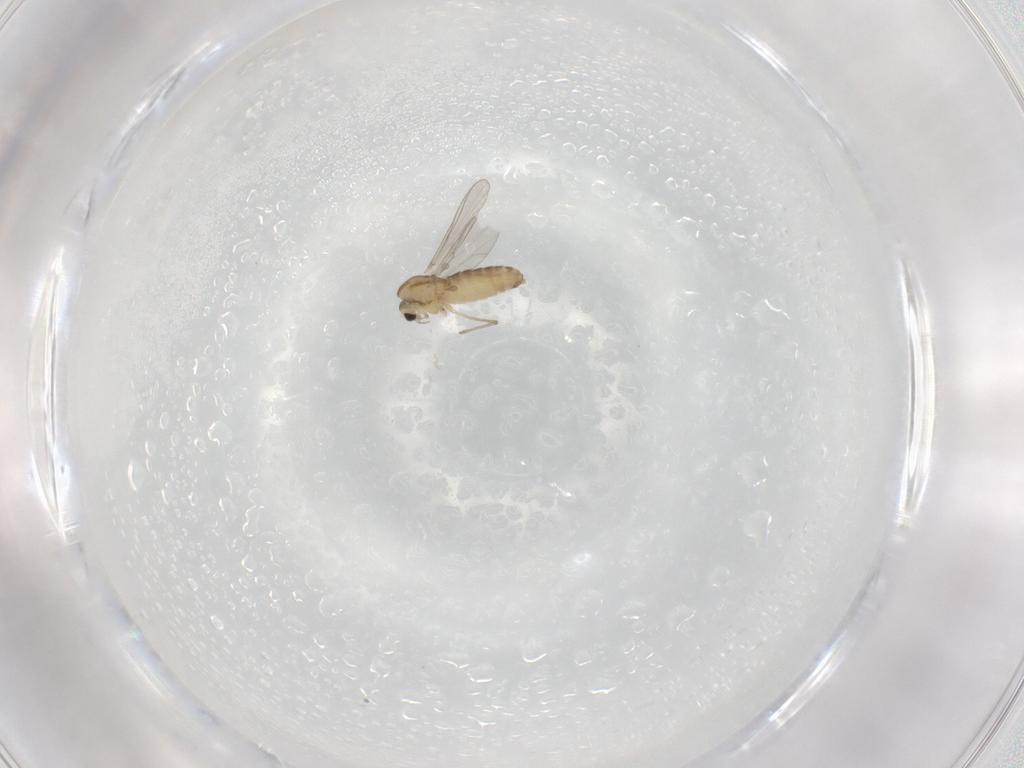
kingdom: Animalia
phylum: Arthropoda
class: Insecta
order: Diptera
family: Chironomidae
